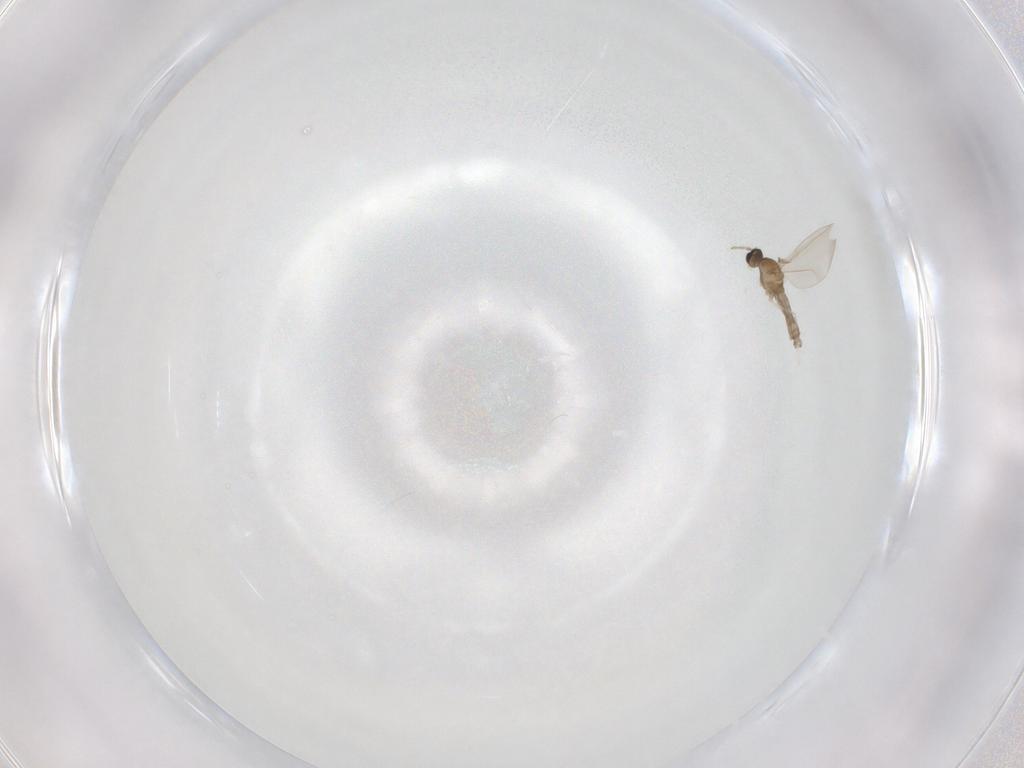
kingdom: Animalia
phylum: Arthropoda
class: Insecta
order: Diptera
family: Cecidomyiidae
